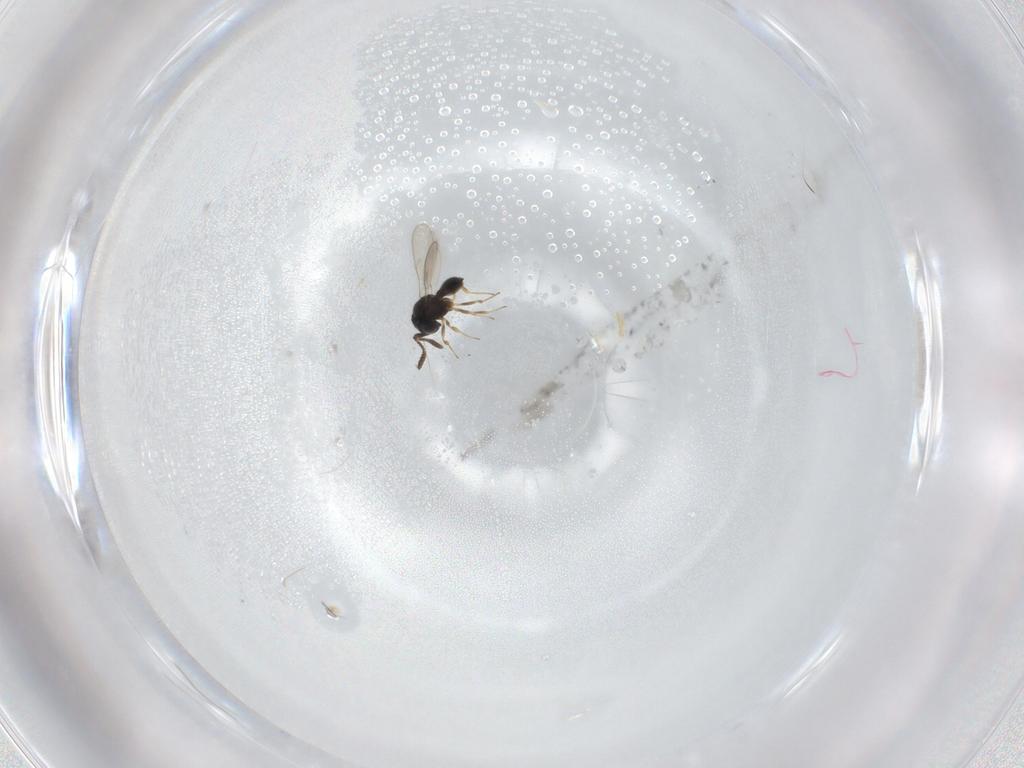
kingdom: Animalia
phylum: Arthropoda
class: Insecta
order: Hymenoptera
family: Scelionidae
